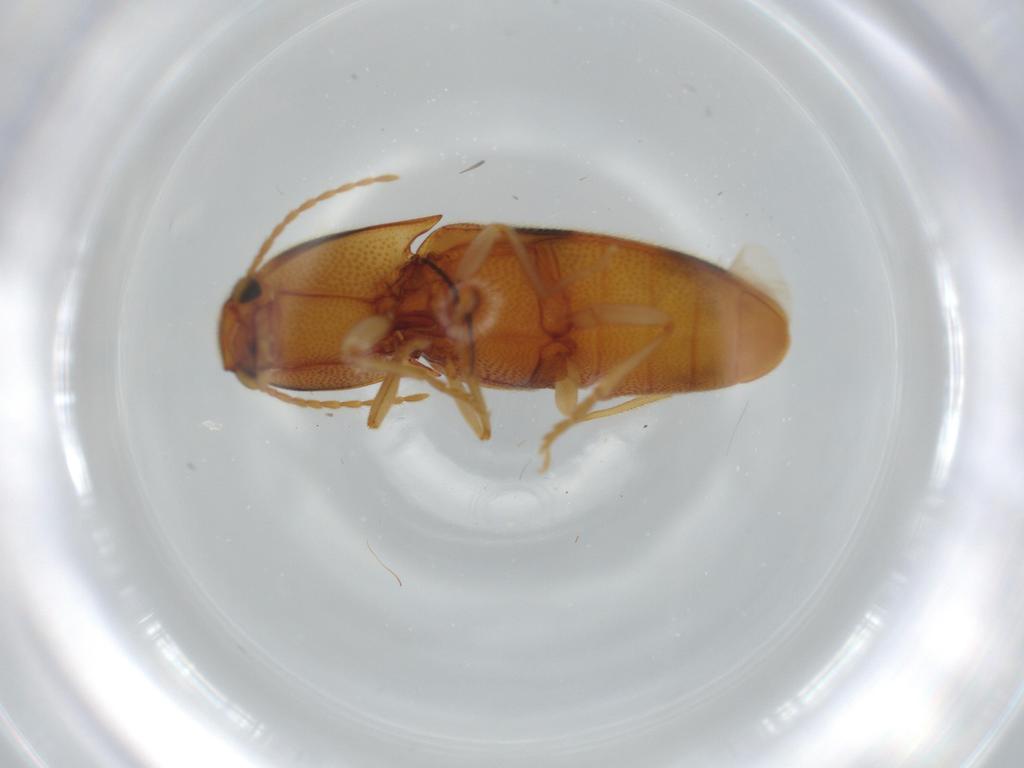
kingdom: Animalia
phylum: Arthropoda
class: Insecta
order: Coleoptera
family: Elateridae
